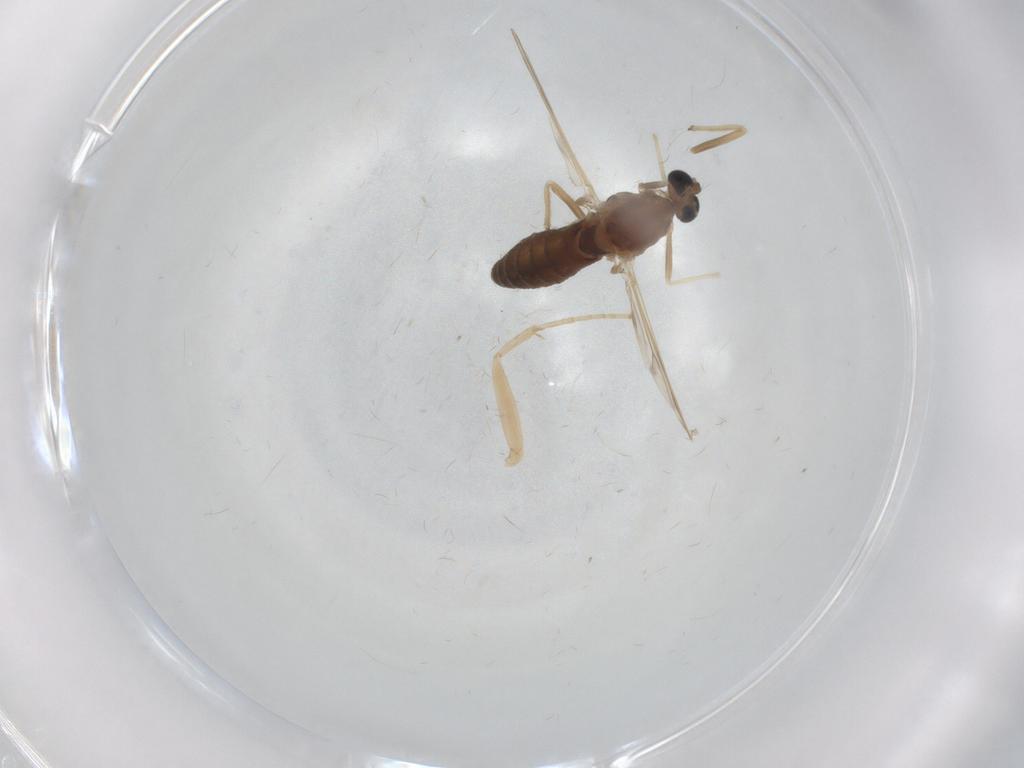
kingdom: Animalia
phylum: Arthropoda
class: Insecta
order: Diptera
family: Chironomidae
